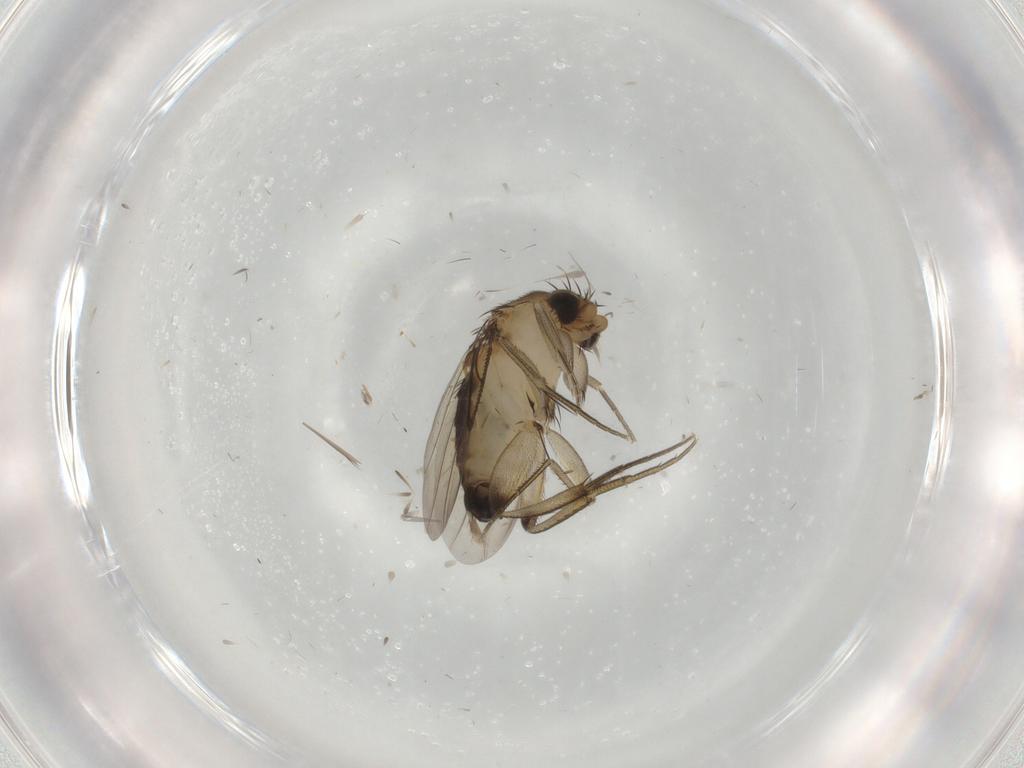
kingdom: Animalia
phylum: Arthropoda
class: Insecta
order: Diptera
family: Phoridae
